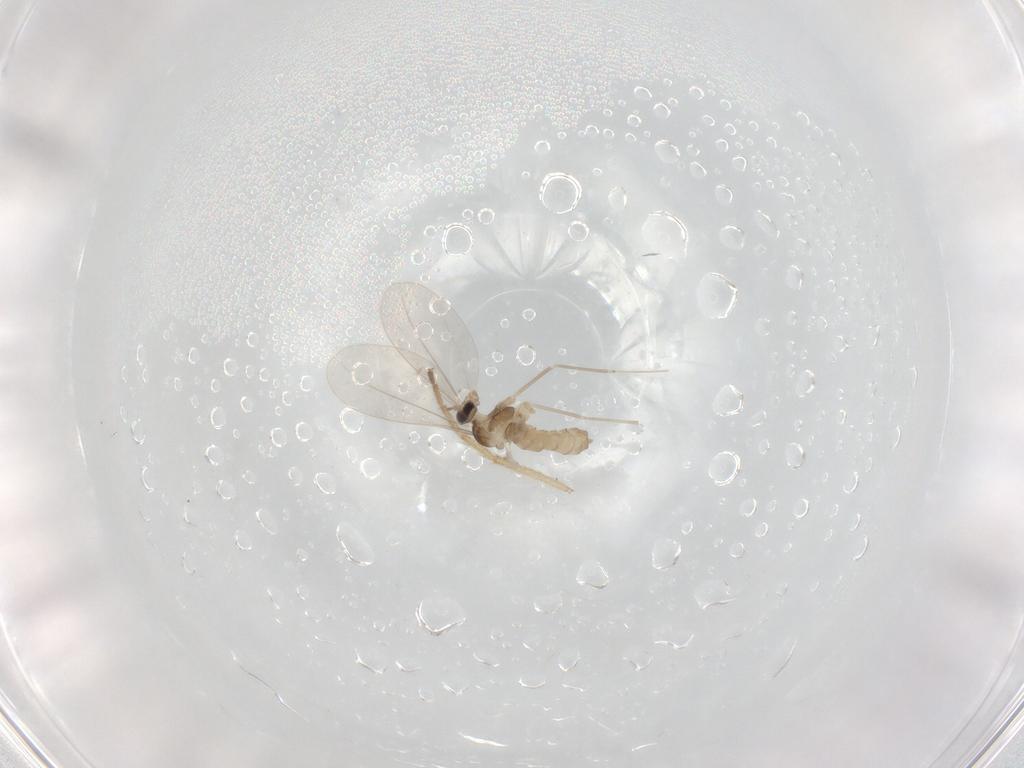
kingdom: Animalia
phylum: Arthropoda
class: Insecta
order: Diptera
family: Cecidomyiidae
